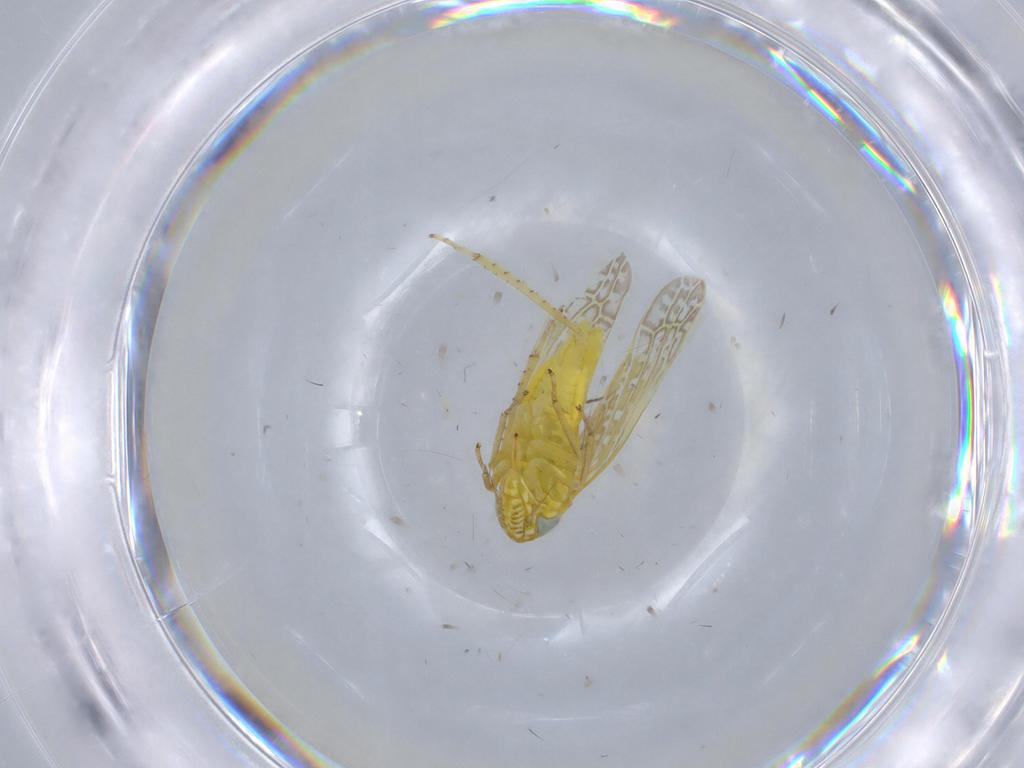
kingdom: Animalia
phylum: Arthropoda
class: Insecta
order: Hemiptera
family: Cicadellidae
